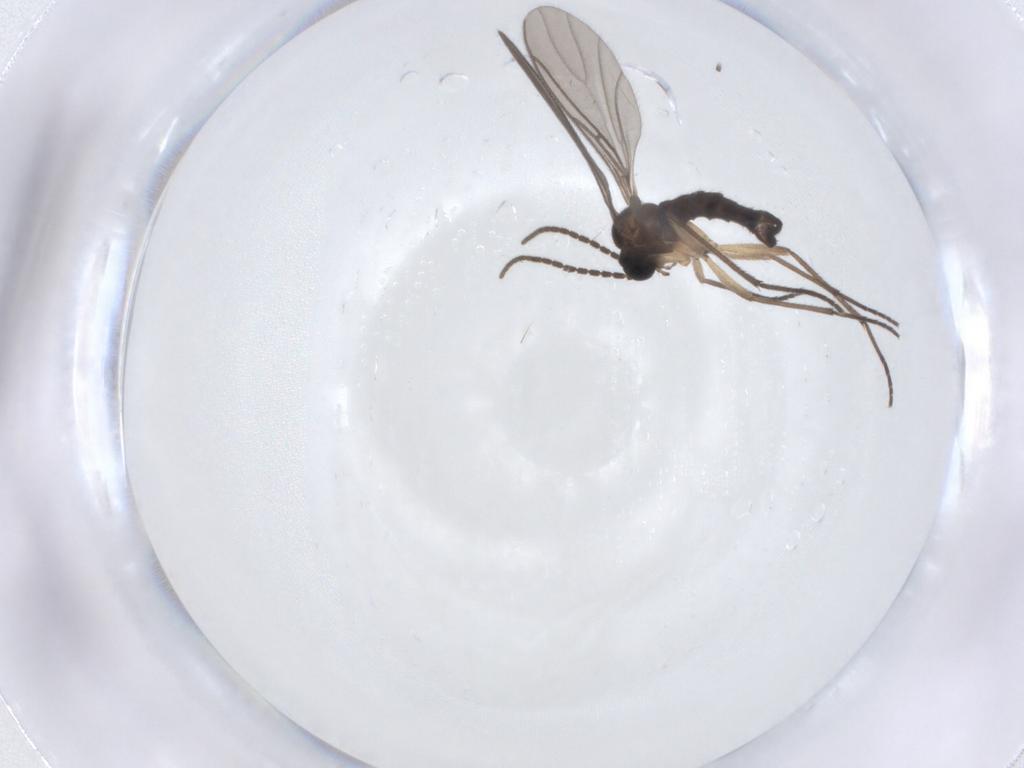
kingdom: Animalia
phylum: Arthropoda
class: Insecta
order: Diptera
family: Sciaridae
